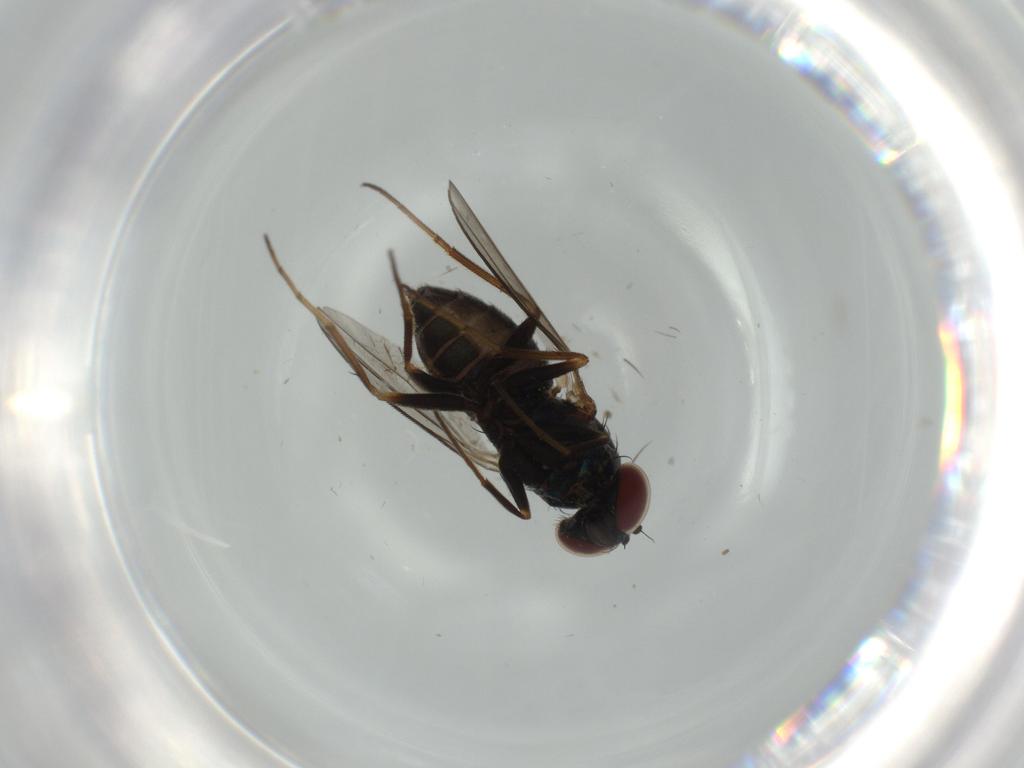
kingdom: Animalia
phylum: Arthropoda
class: Insecta
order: Diptera
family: Dolichopodidae
